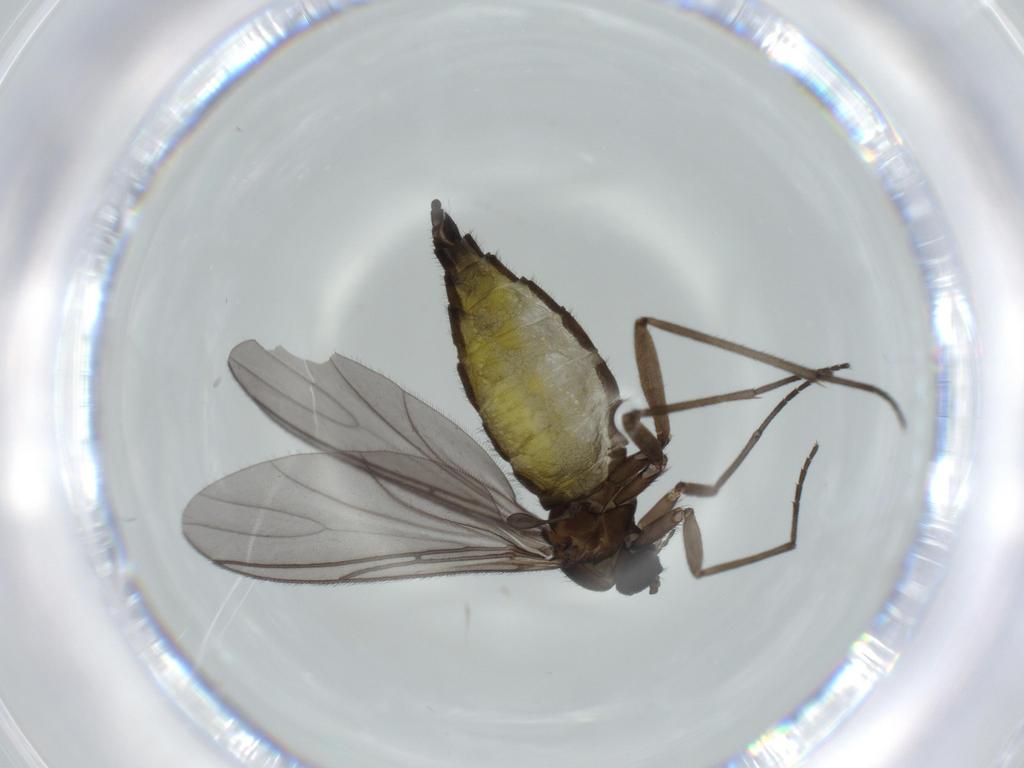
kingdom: Animalia
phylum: Arthropoda
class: Insecta
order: Diptera
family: Sciaridae
